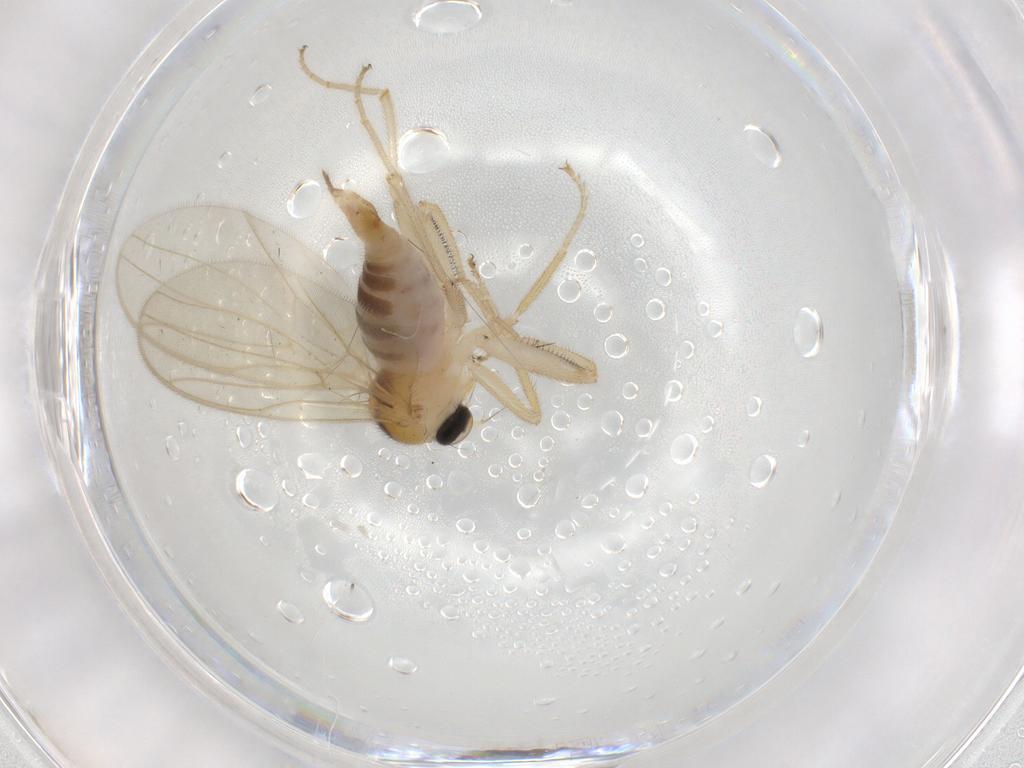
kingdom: Animalia
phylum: Arthropoda
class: Insecta
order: Diptera
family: Hybotidae
